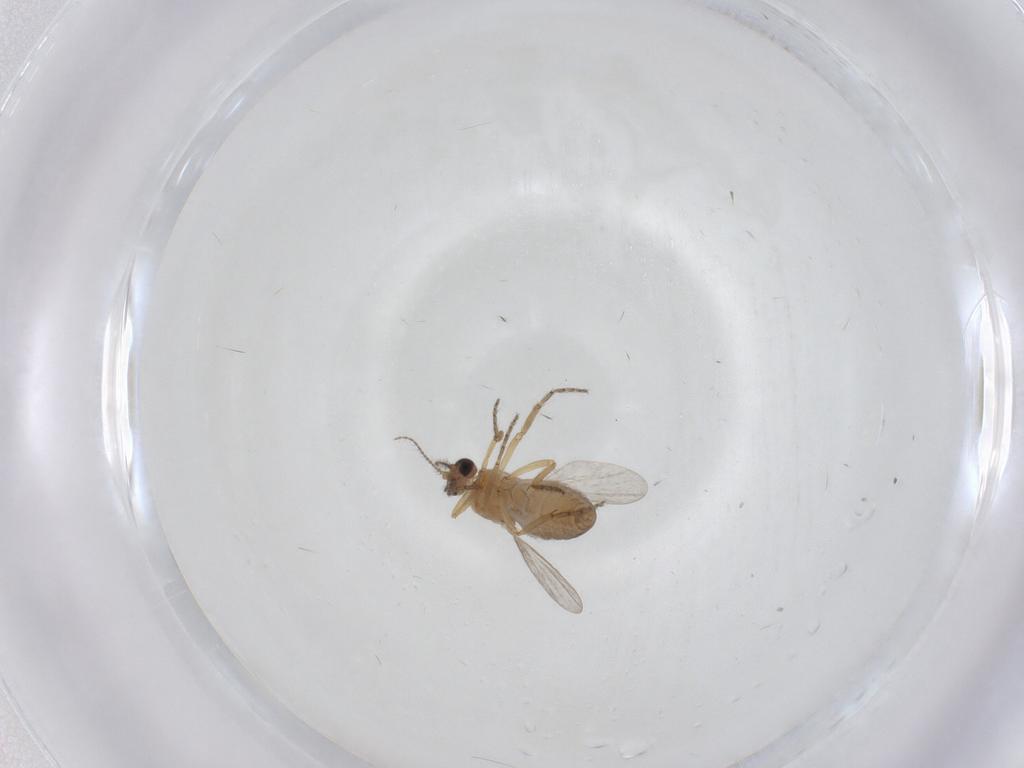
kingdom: Animalia
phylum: Arthropoda
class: Insecta
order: Diptera
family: Ceratopogonidae
